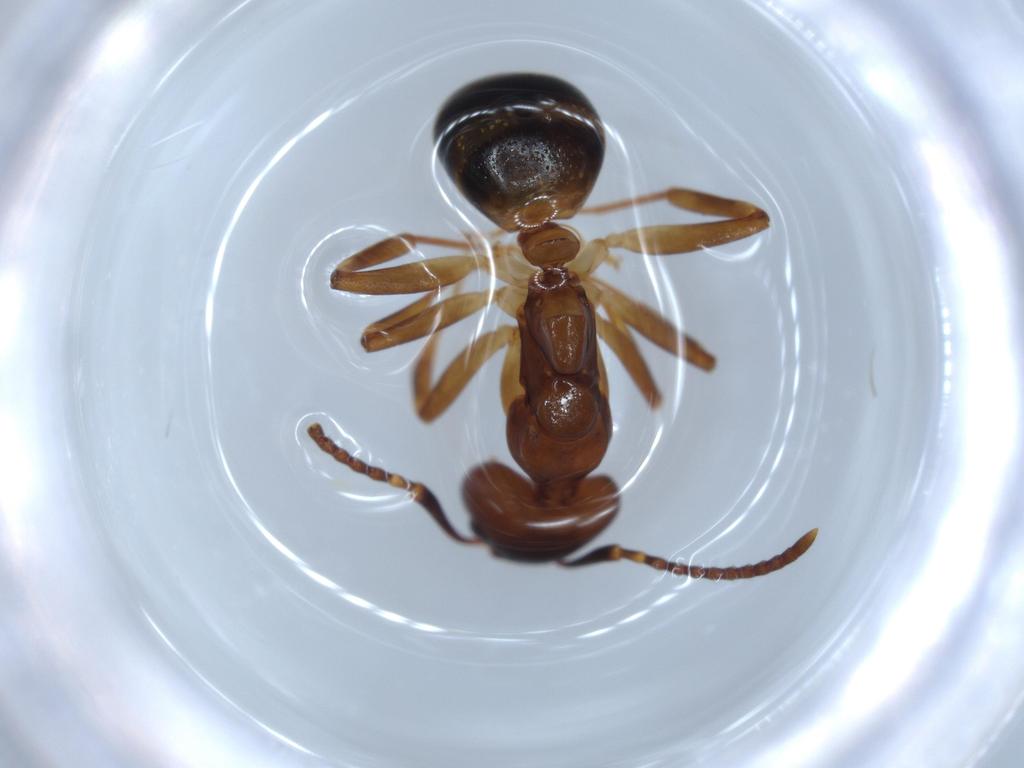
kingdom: Animalia
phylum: Arthropoda
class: Insecta
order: Hymenoptera
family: Formicidae
